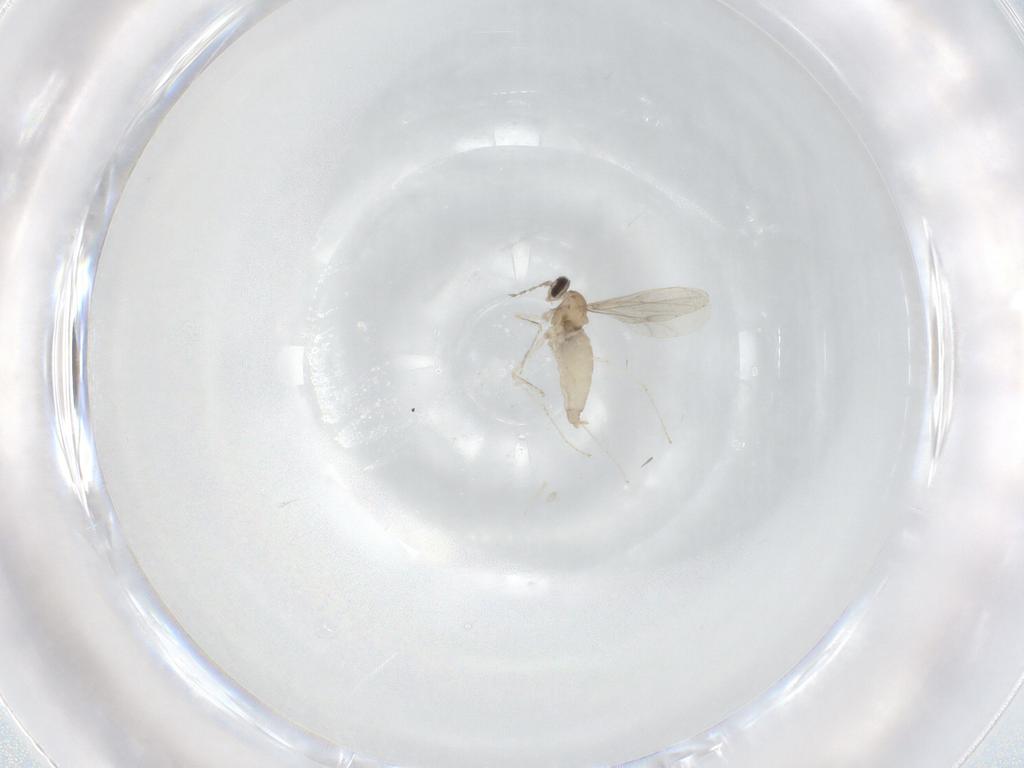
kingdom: Animalia
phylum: Arthropoda
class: Insecta
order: Diptera
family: Cecidomyiidae
